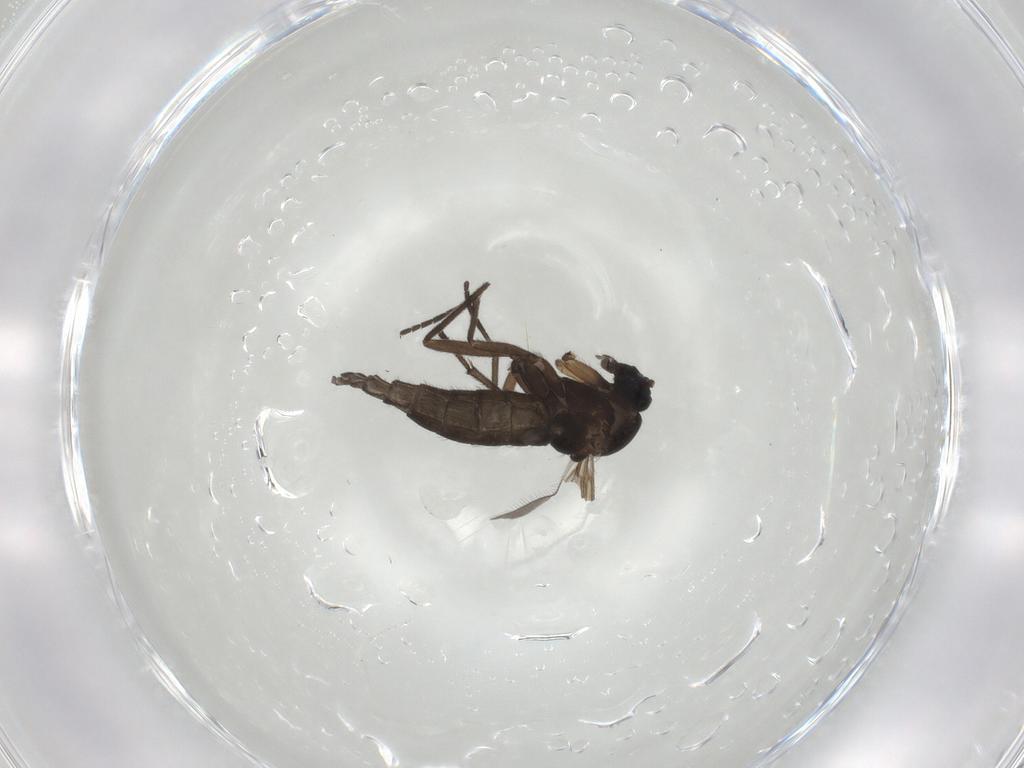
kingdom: Animalia
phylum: Arthropoda
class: Insecta
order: Diptera
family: Sciaridae
